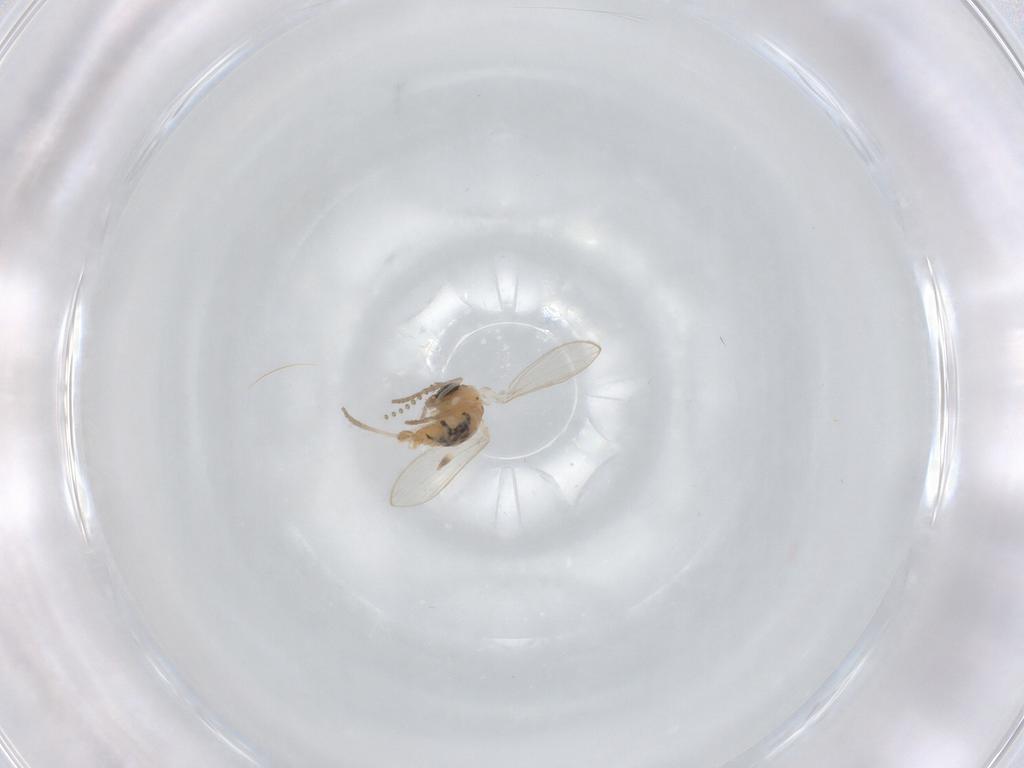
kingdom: Animalia
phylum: Arthropoda
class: Insecta
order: Diptera
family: Psychodidae
